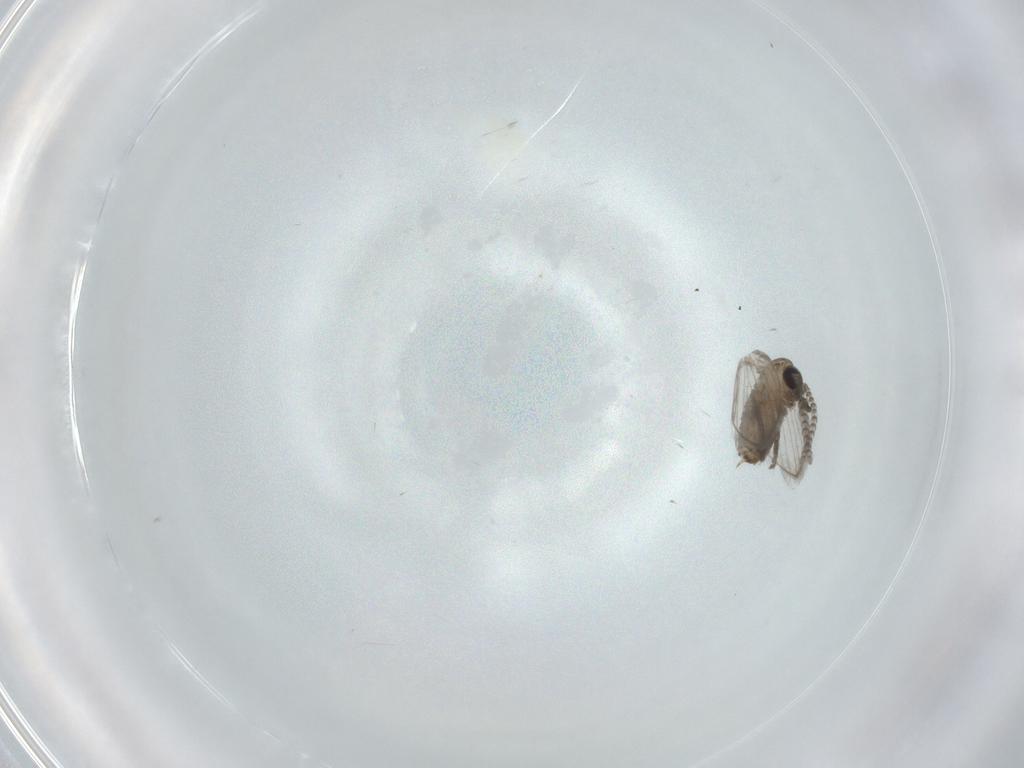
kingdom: Animalia
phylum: Arthropoda
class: Insecta
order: Diptera
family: Psychodidae
